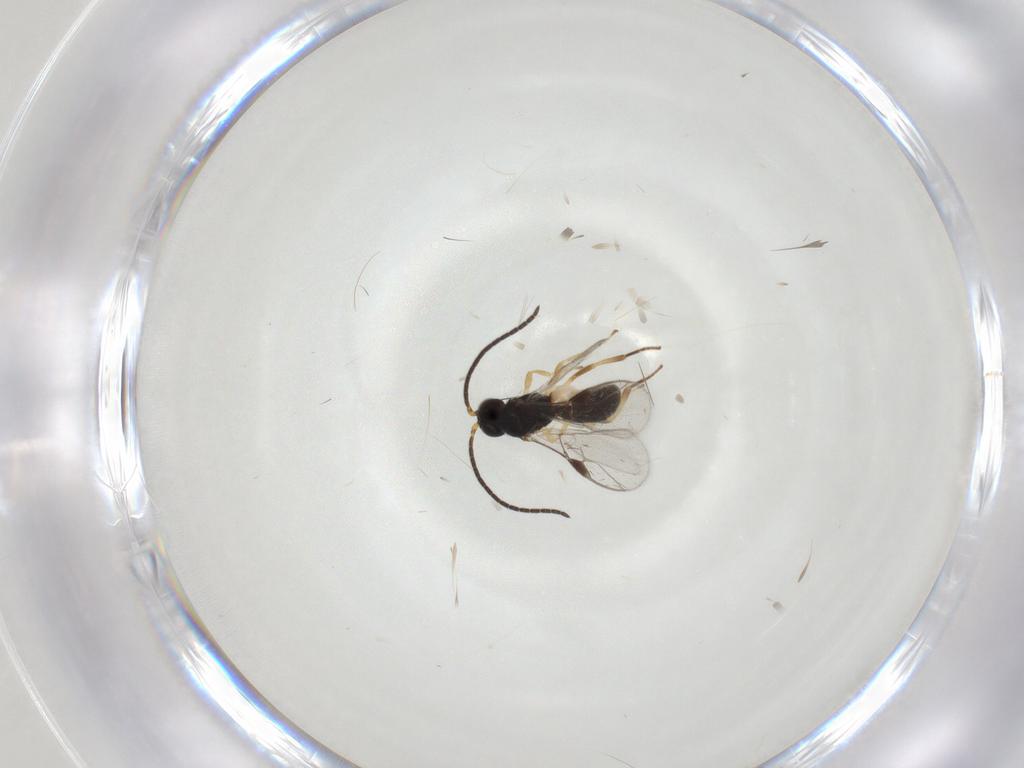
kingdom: Animalia
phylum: Arthropoda
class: Insecta
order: Hymenoptera
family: Braconidae
